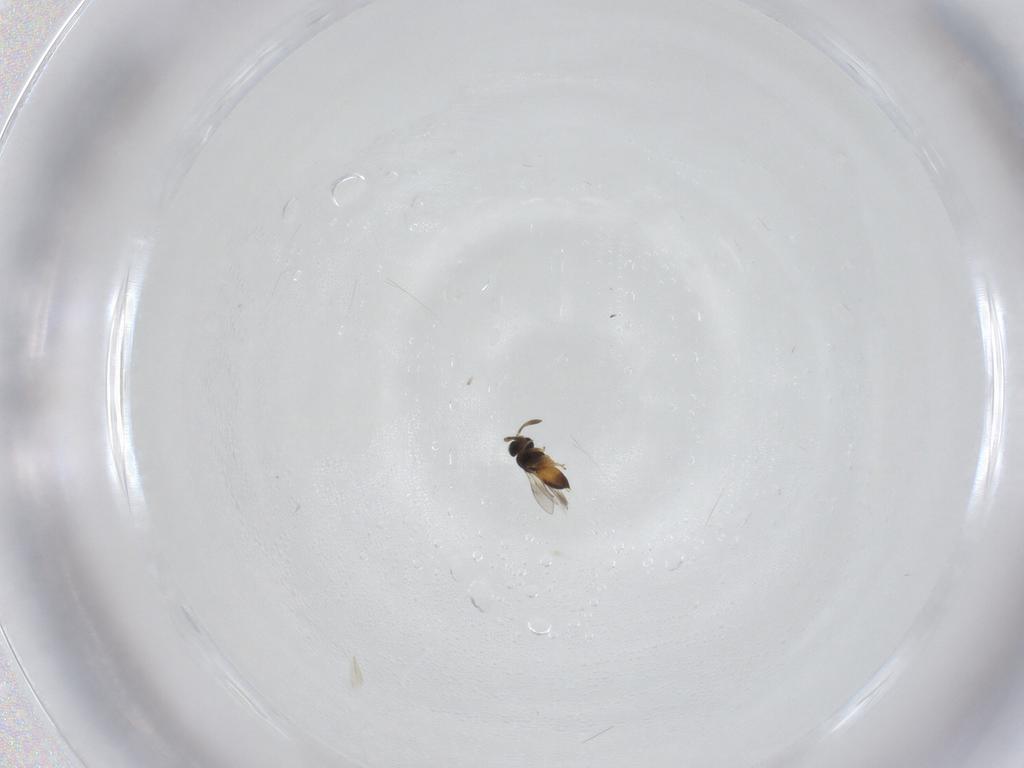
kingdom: Animalia
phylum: Arthropoda
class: Insecta
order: Hymenoptera
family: Scelionidae
